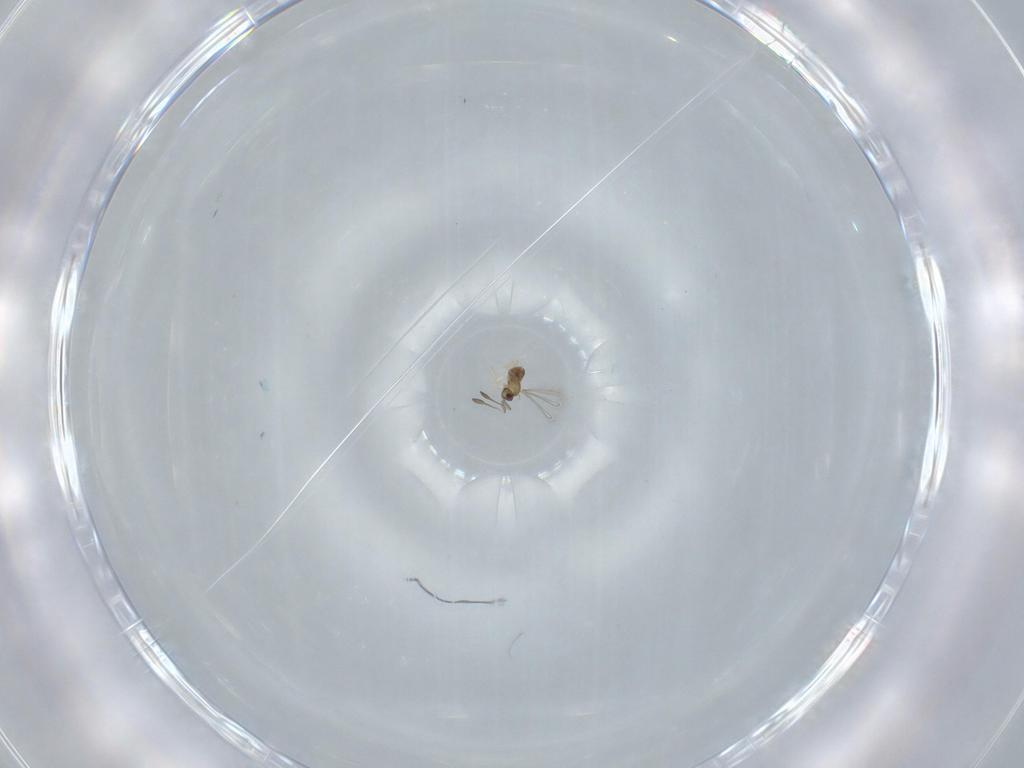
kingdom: Animalia
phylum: Arthropoda
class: Insecta
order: Hymenoptera
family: Mymaridae
